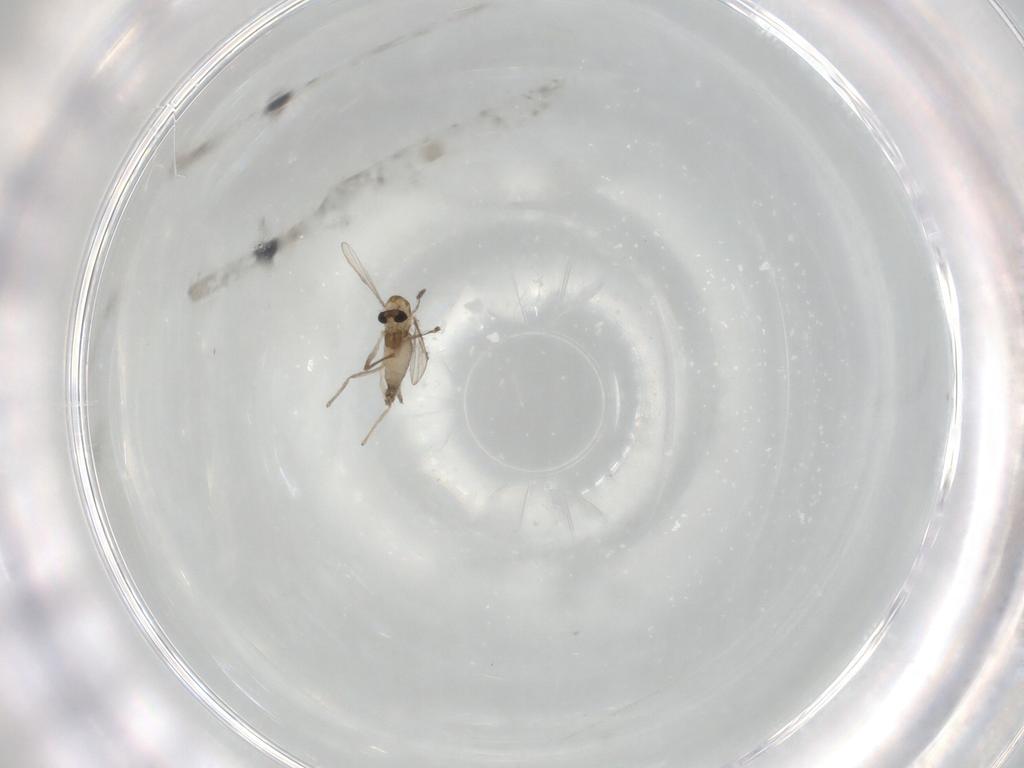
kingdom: Animalia
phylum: Arthropoda
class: Insecta
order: Diptera
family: Chironomidae
